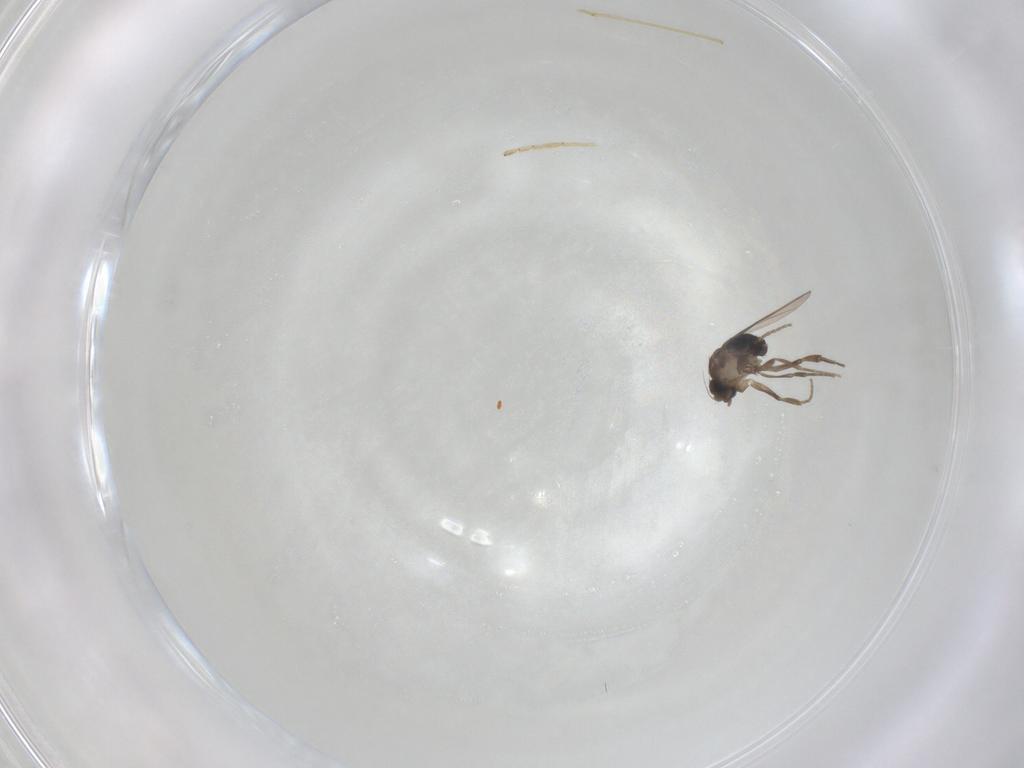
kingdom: Animalia
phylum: Arthropoda
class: Insecta
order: Diptera
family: Phoridae
